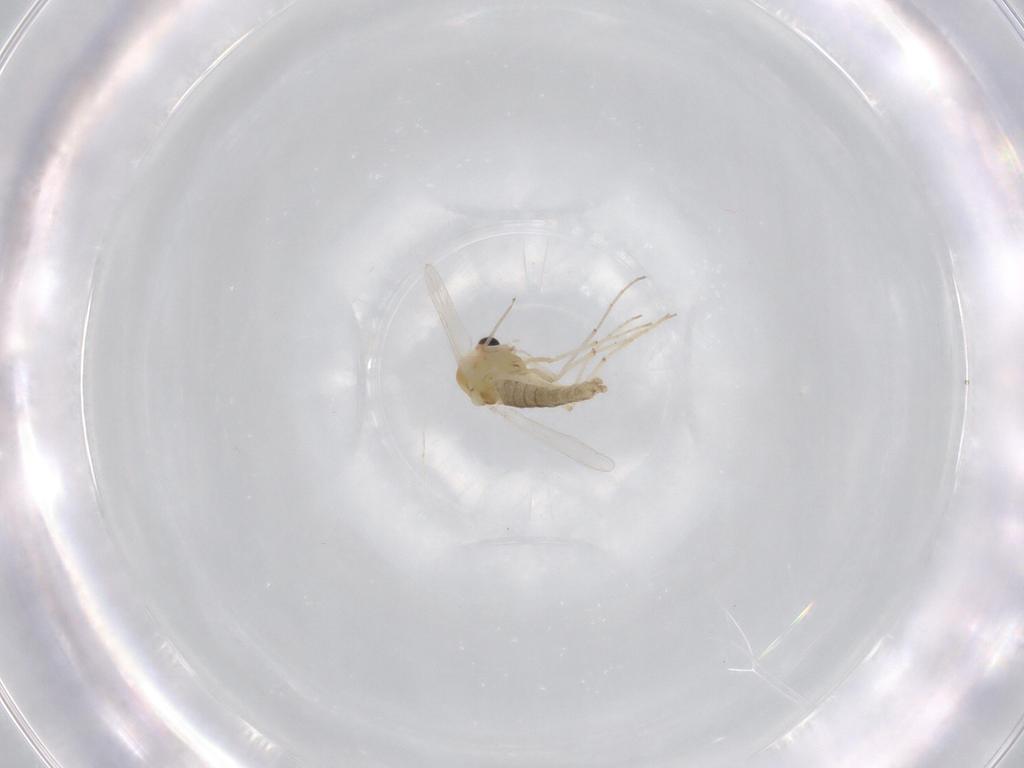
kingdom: Animalia
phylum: Arthropoda
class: Insecta
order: Diptera
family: Chironomidae
